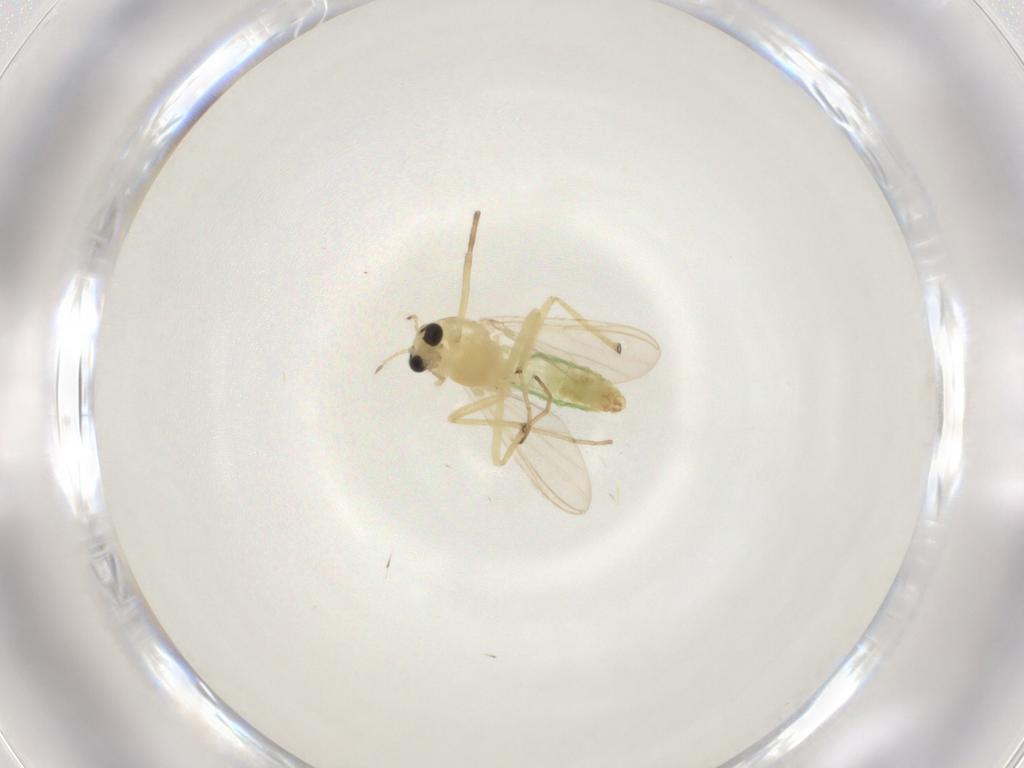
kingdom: Animalia
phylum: Arthropoda
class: Insecta
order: Diptera
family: Chironomidae
